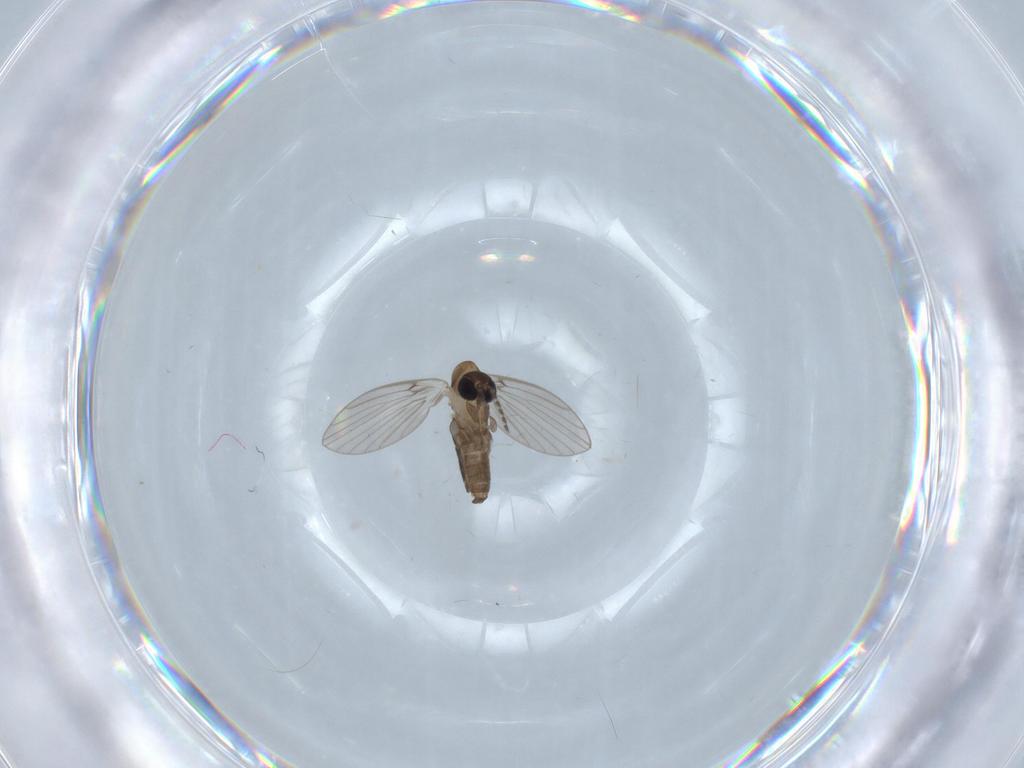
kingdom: Animalia
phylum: Arthropoda
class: Insecta
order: Diptera
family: Psychodidae
